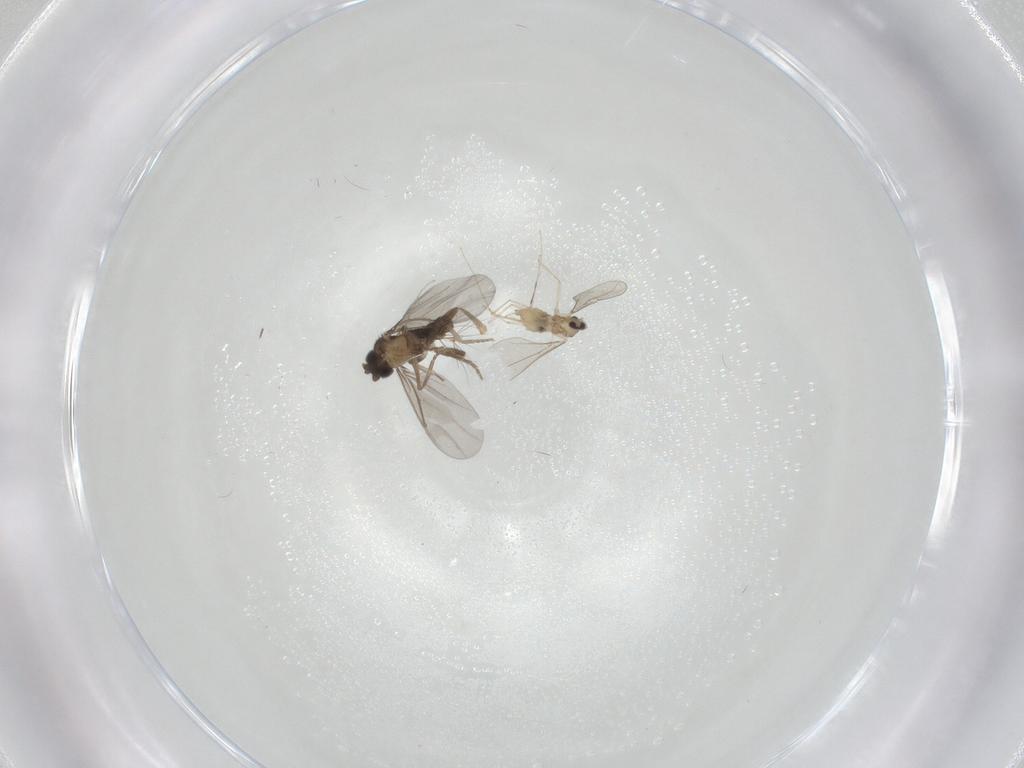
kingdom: Animalia
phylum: Arthropoda
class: Insecta
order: Diptera
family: Cecidomyiidae
